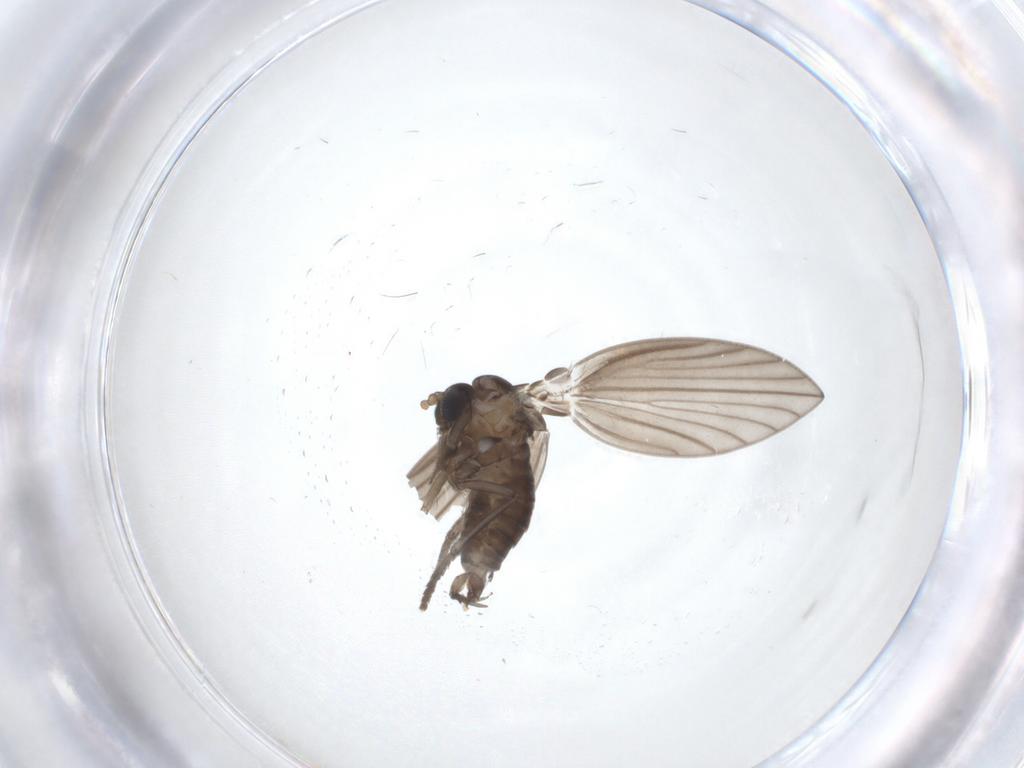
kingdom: Animalia
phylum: Arthropoda
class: Insecta
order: Diptera
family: Psychodidae
